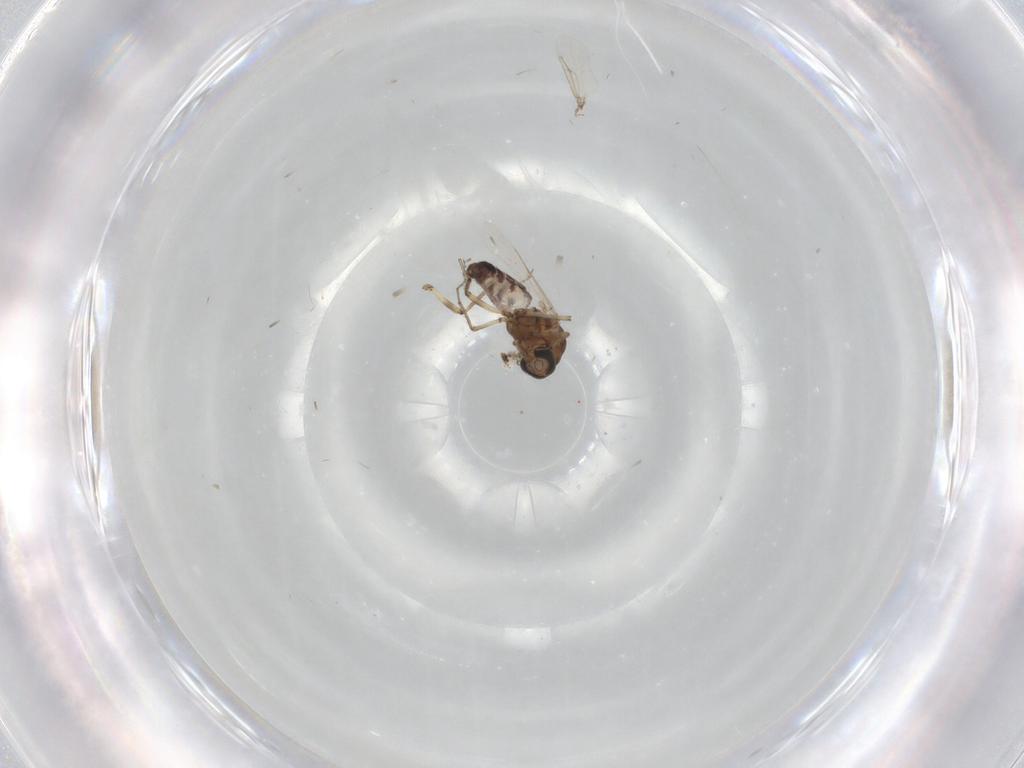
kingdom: Animalia
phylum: Arthropoda
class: Insecta
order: Diptera
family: Ceratopogonidae
